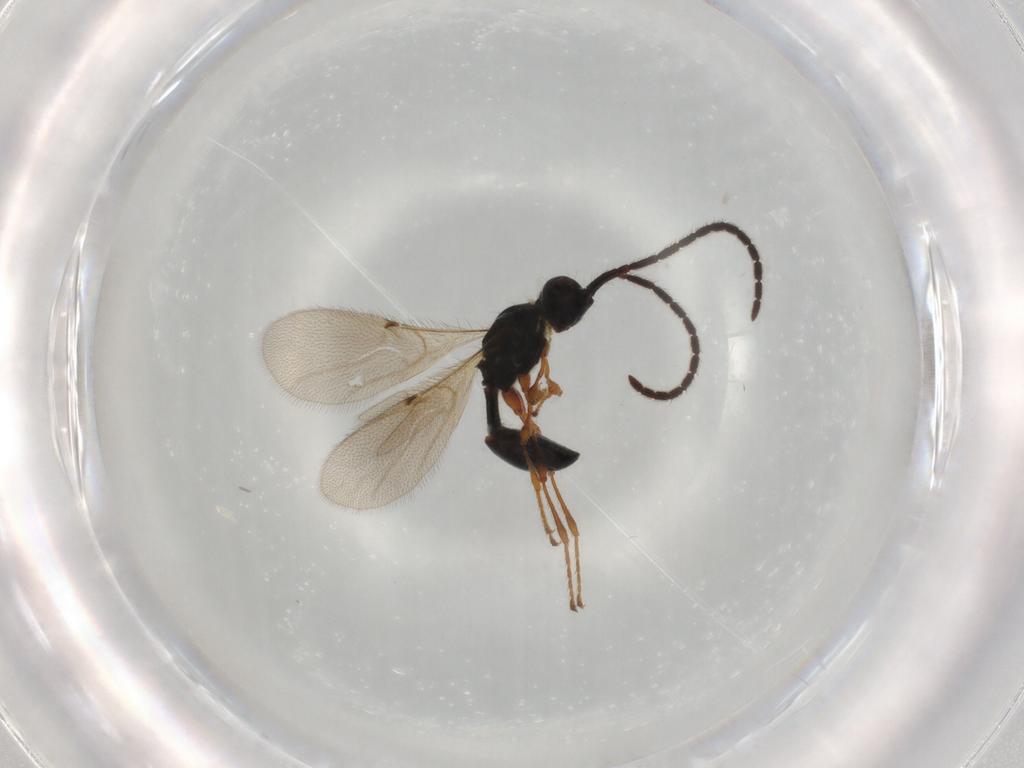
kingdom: Animalia
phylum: Arthropoda
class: Insecta
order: Hymenoptera
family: Diapriidae
